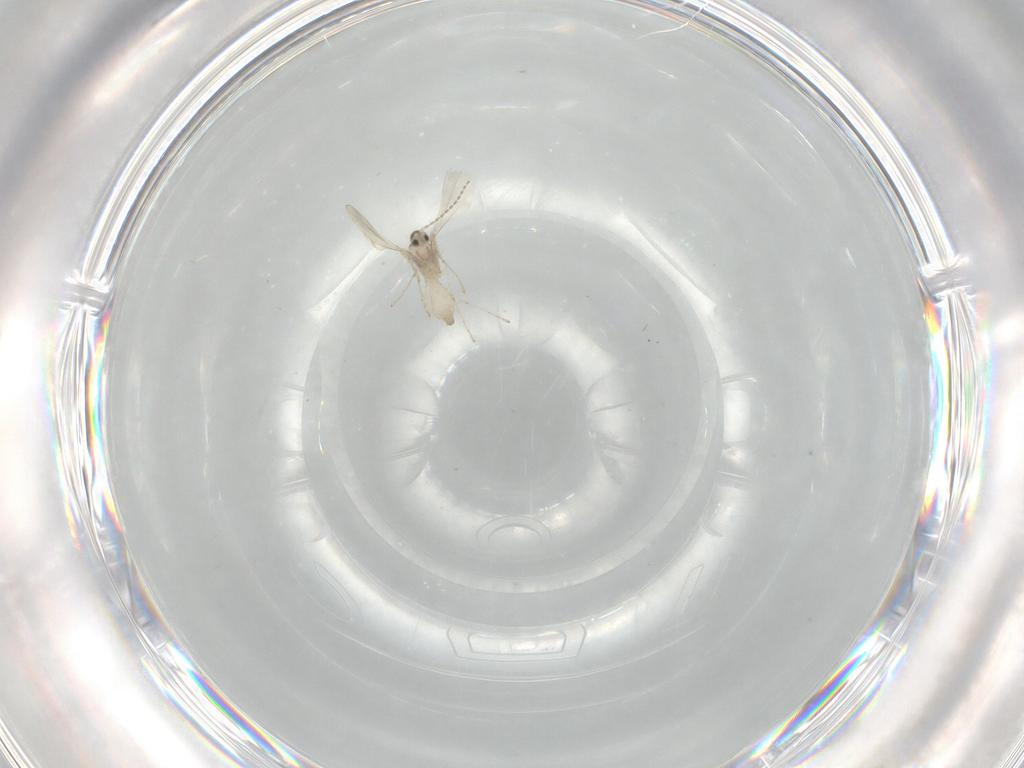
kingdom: Animalia
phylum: Arthropoda
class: Insecta
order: Diptera
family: Cecidomyiidae
